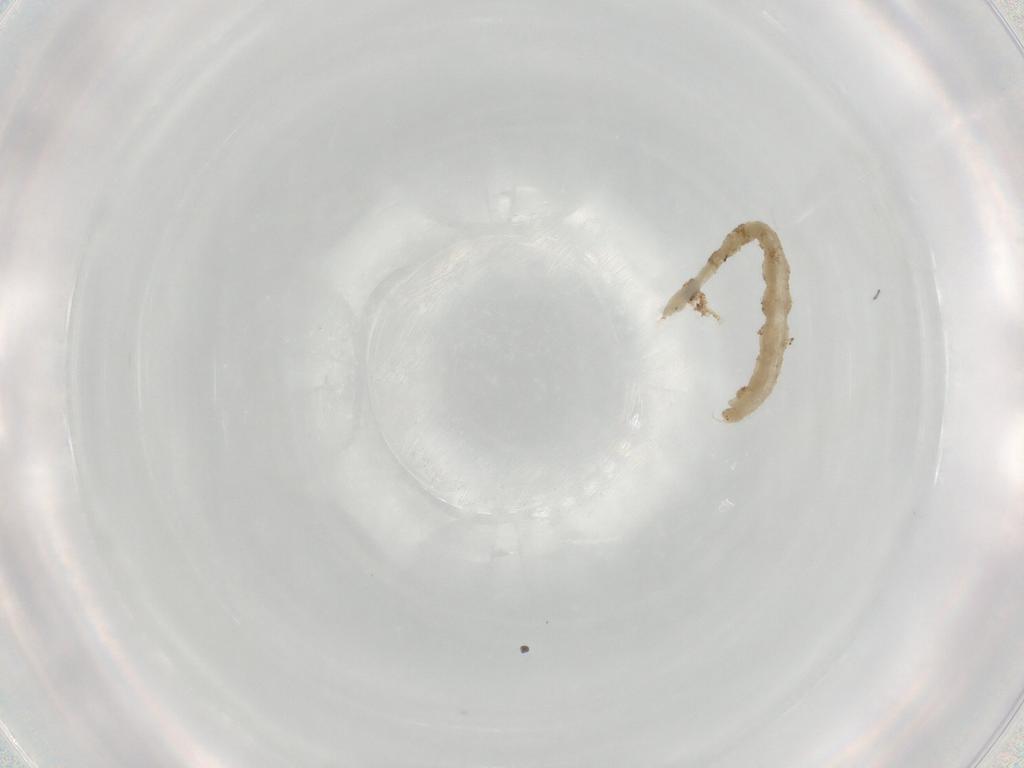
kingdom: Animalia
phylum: Arthropoda
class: Insecta
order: Diptera
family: Chironomidae
